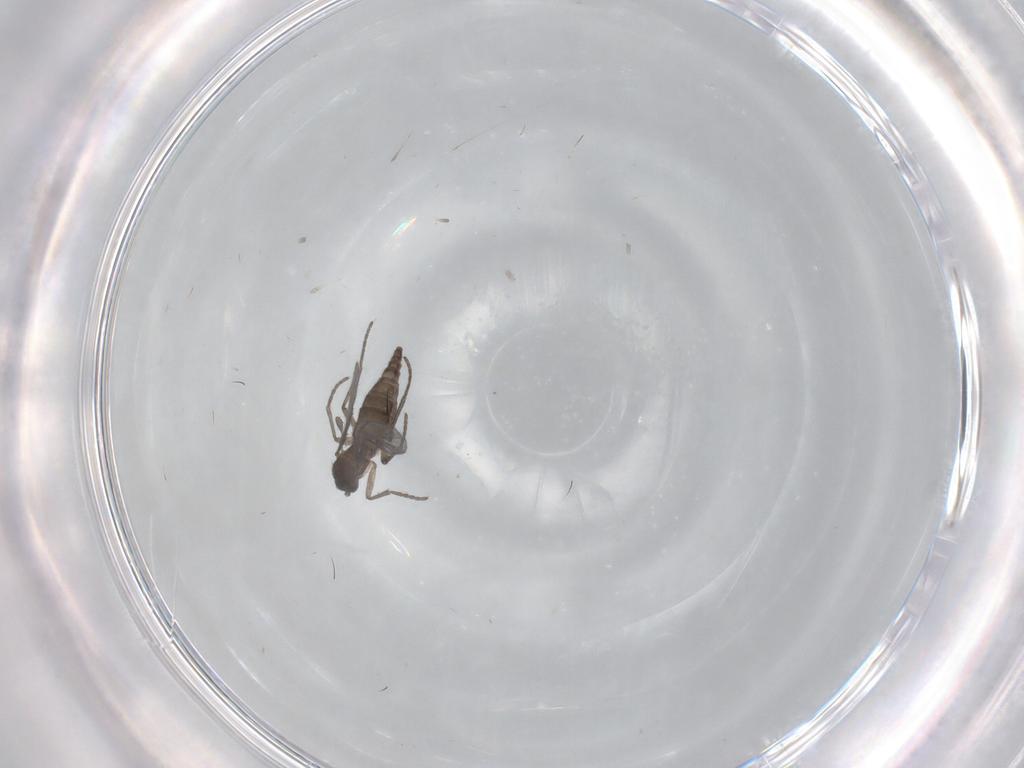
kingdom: Animalia
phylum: Arthropoda
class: Insecta
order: Diptera
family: Sciaridae
